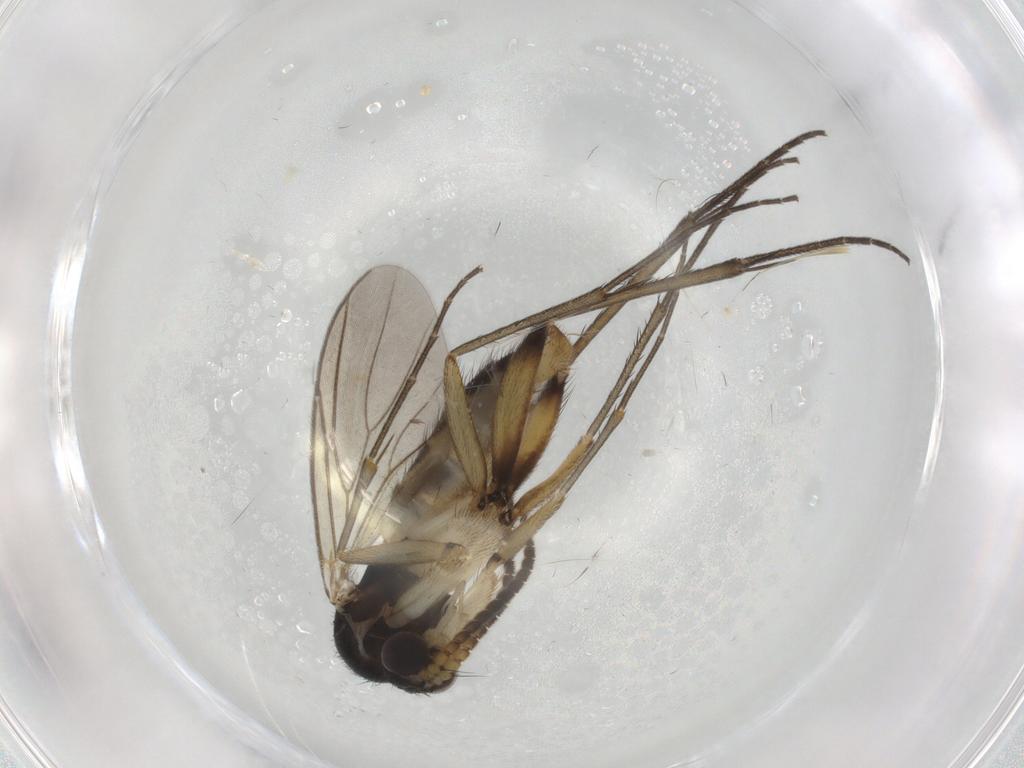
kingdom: Animalia
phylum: Arthropoda
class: Insecta
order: Diptera
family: Mycetophilidae
